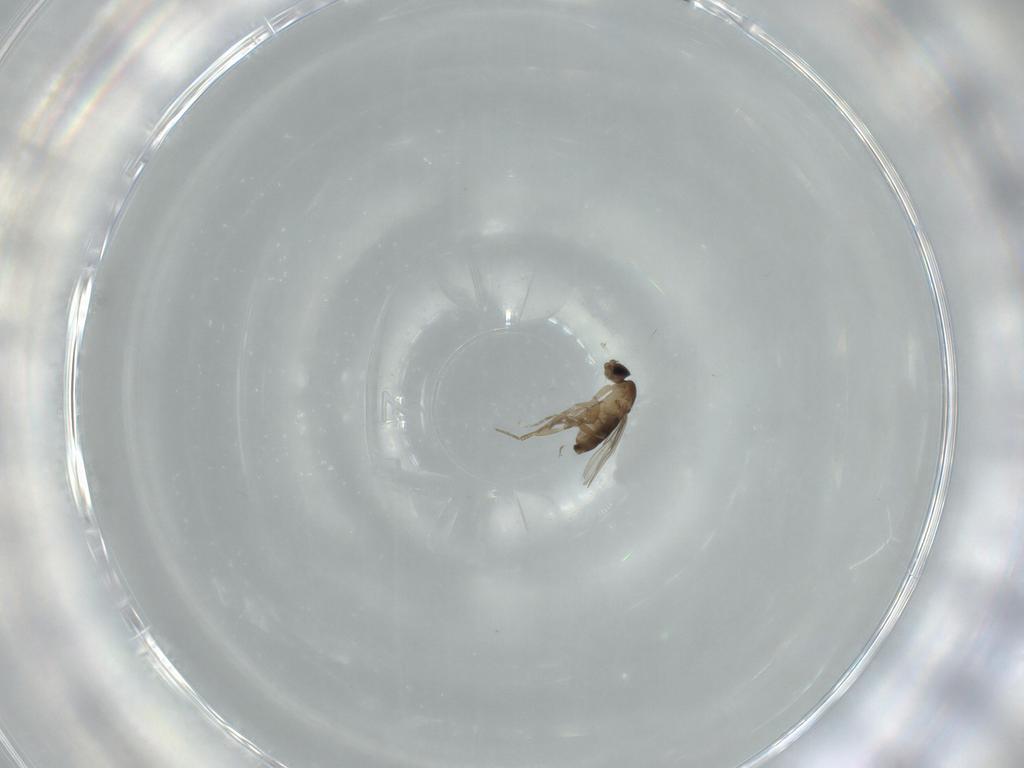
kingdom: Animalia
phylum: Arthropoda
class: Insecta
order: Diptera
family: Phoridae
